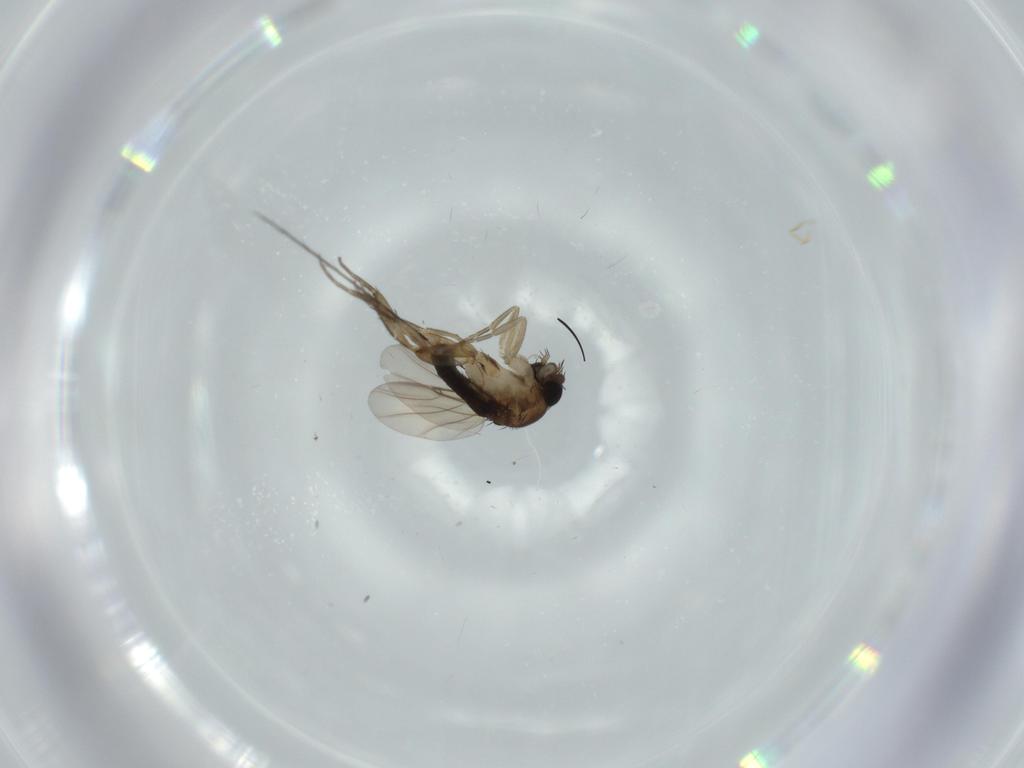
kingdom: Animalia
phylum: Arthropoda
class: Insecta
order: Diptera
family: Phoridae
